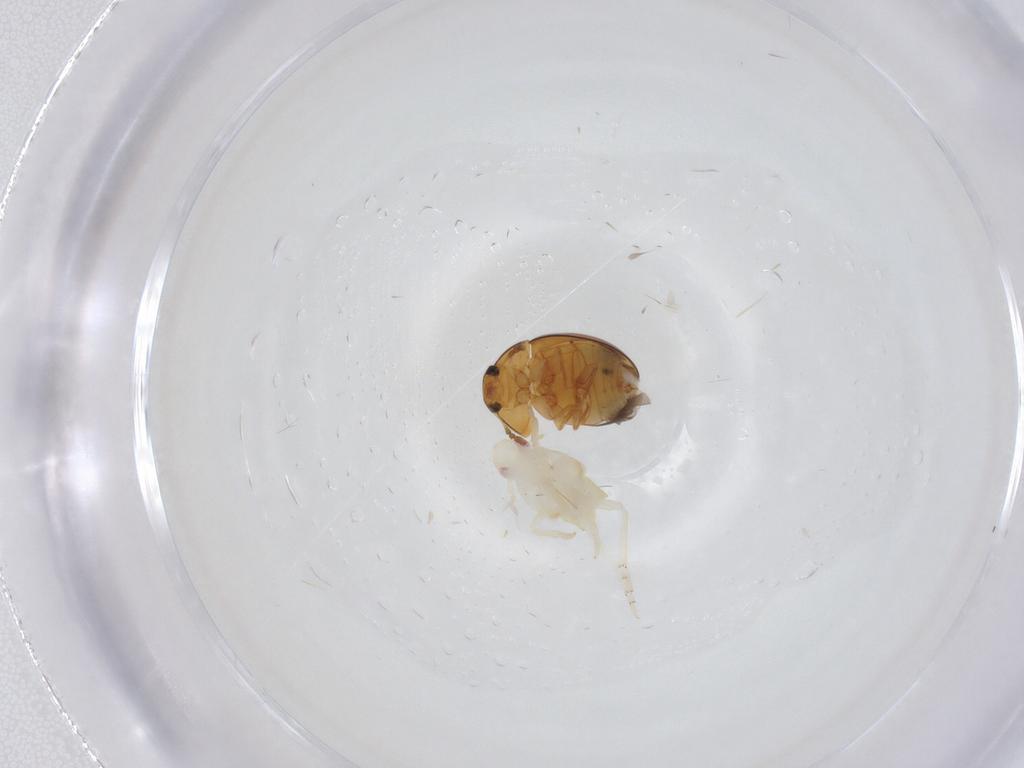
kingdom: Animalia
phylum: Arthropoda
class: Insecta
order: Coleoptera
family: Phalacridae
